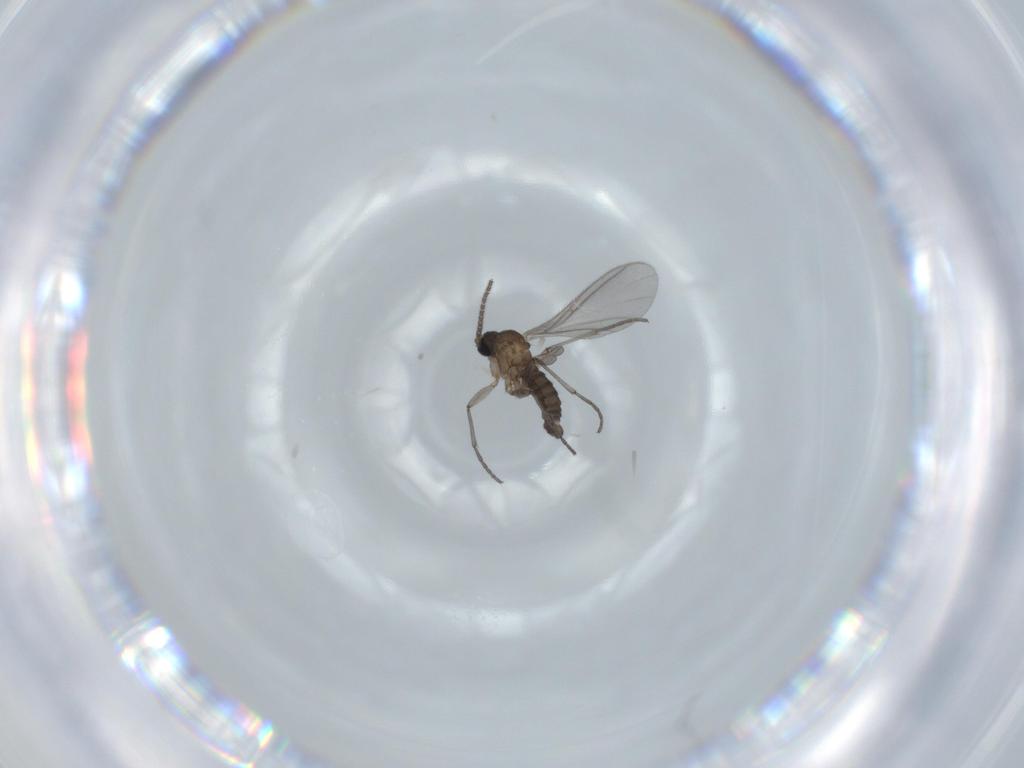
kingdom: Animalia
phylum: Arthropoda
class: Insecta
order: Diptera
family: Sciaridae
